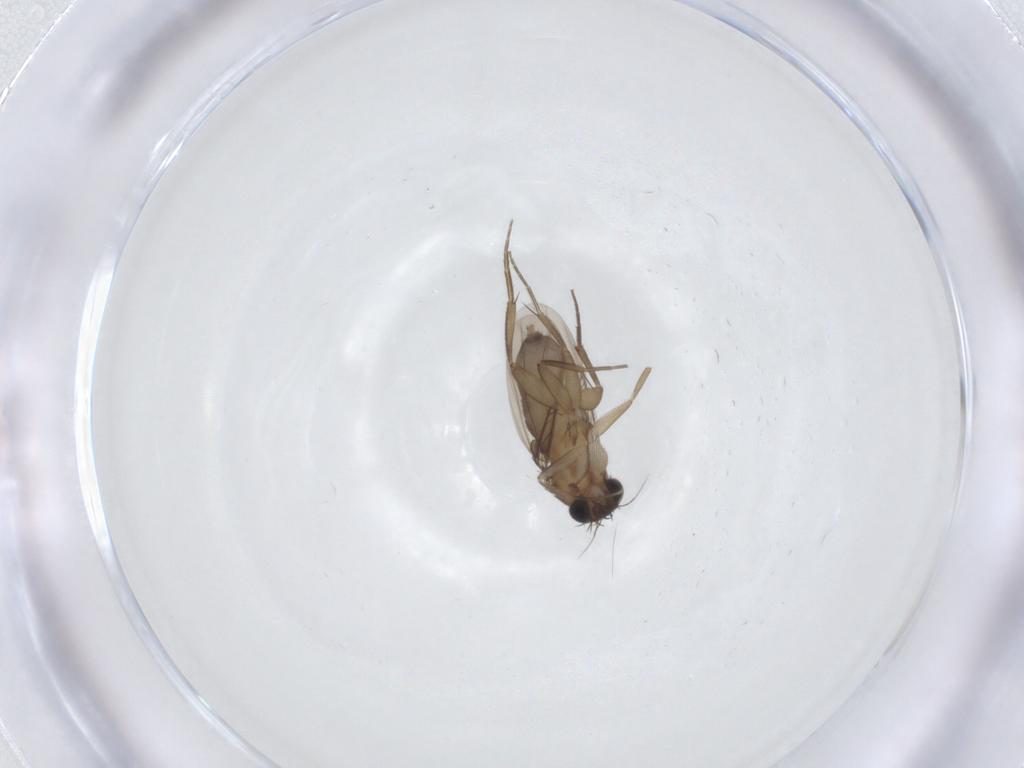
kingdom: Animalia
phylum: Arthropoda
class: Insecta
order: Diptera
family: Phoridae
